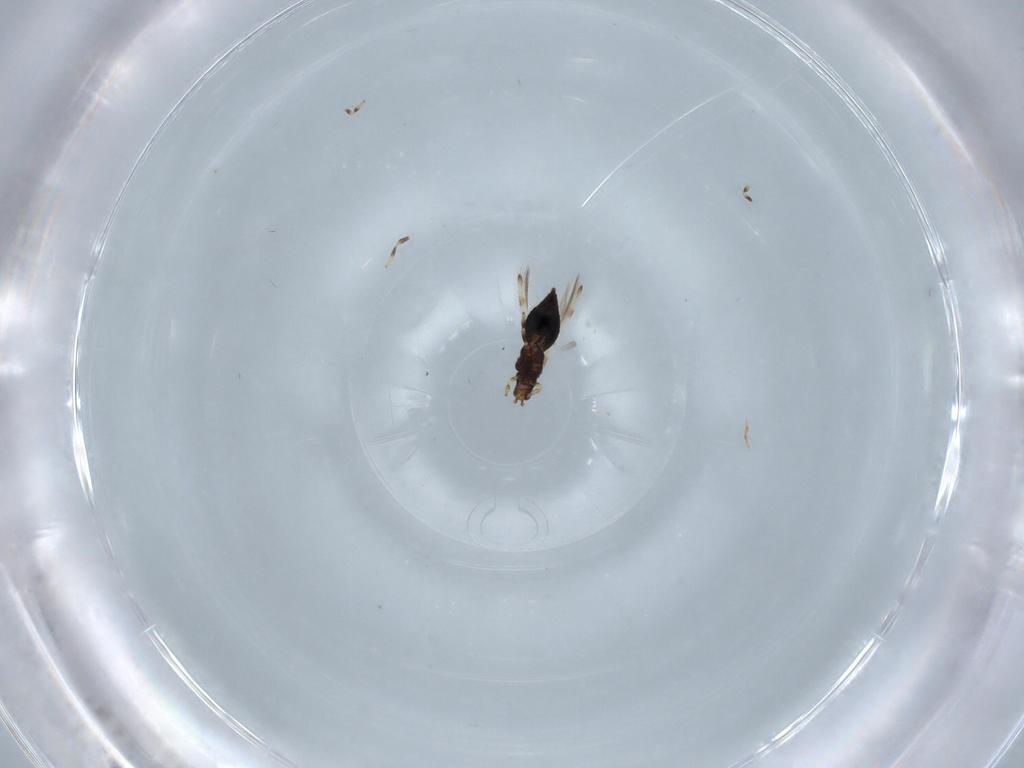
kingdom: Animalia
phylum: Arthropoda
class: Insecta
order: Thysanoptera
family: Thripidae
